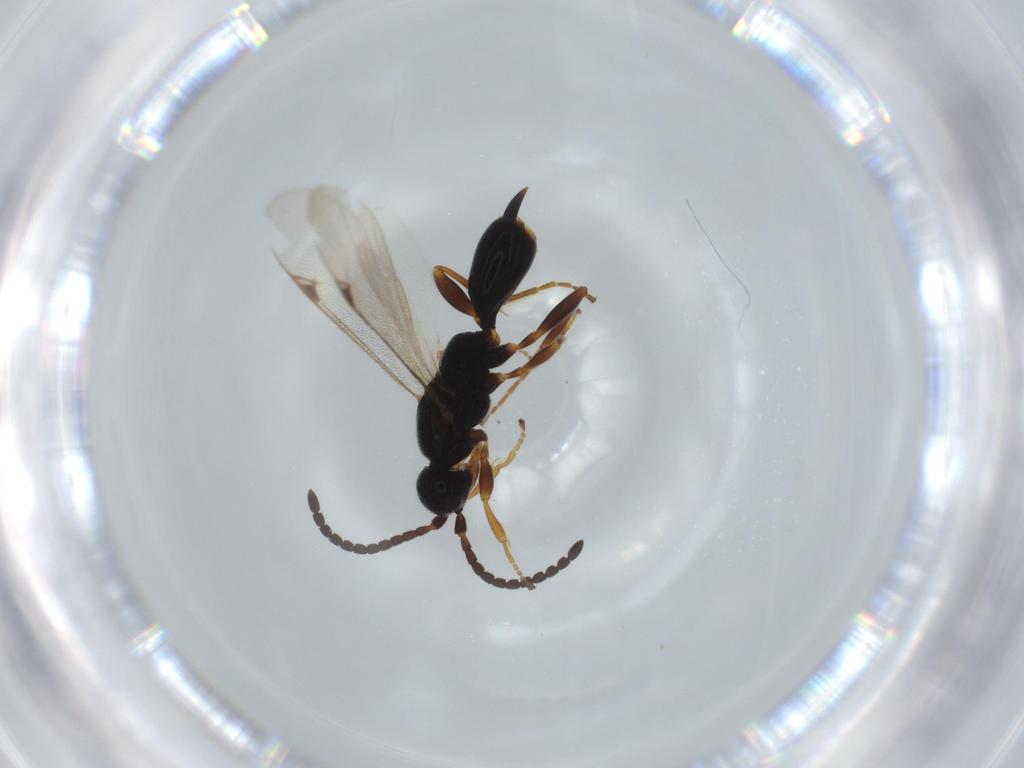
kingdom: Animalia
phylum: Arthropoda
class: Insecta
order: Hymenoptera
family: Proctotrupidae
